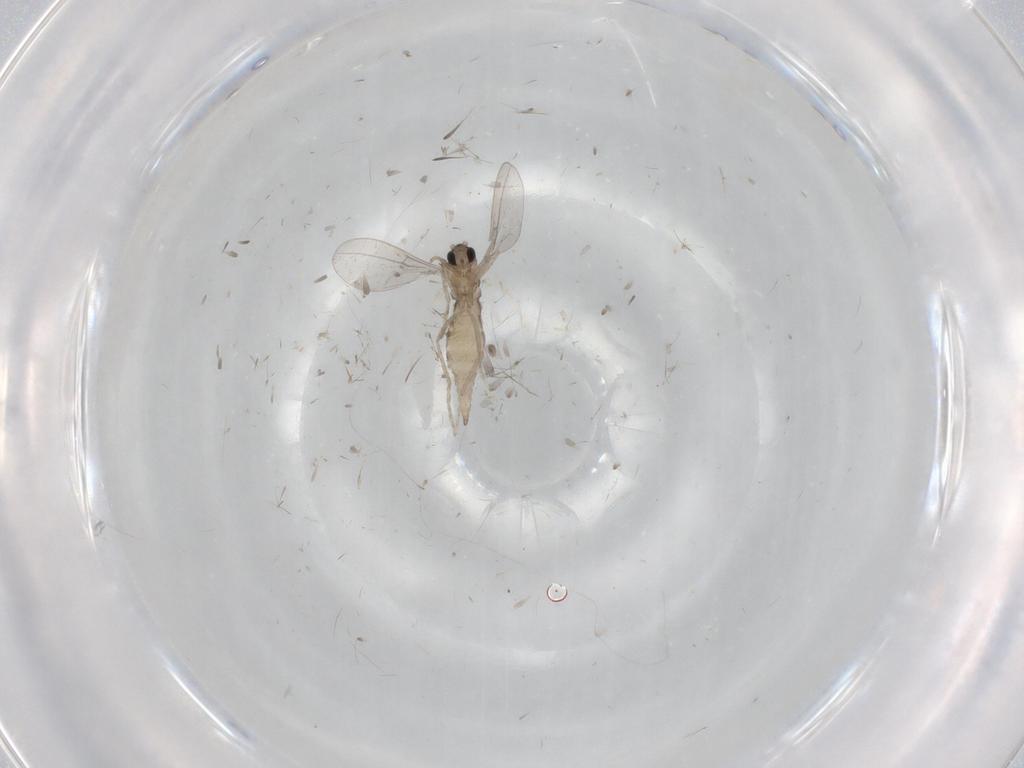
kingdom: Animalia
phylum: Arthropoda
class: Insecta
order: Diptera
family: Cecidomyiidae
